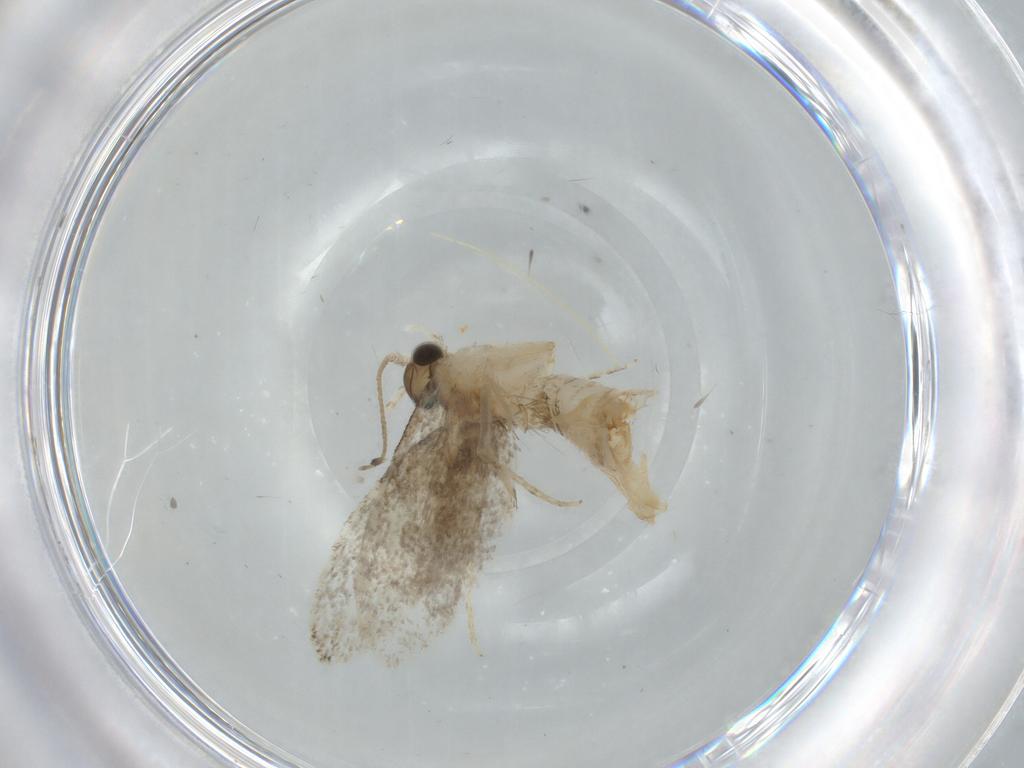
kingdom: Animalia
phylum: Arthropoda
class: Insecta
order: Lepidoptera
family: Tineidae
